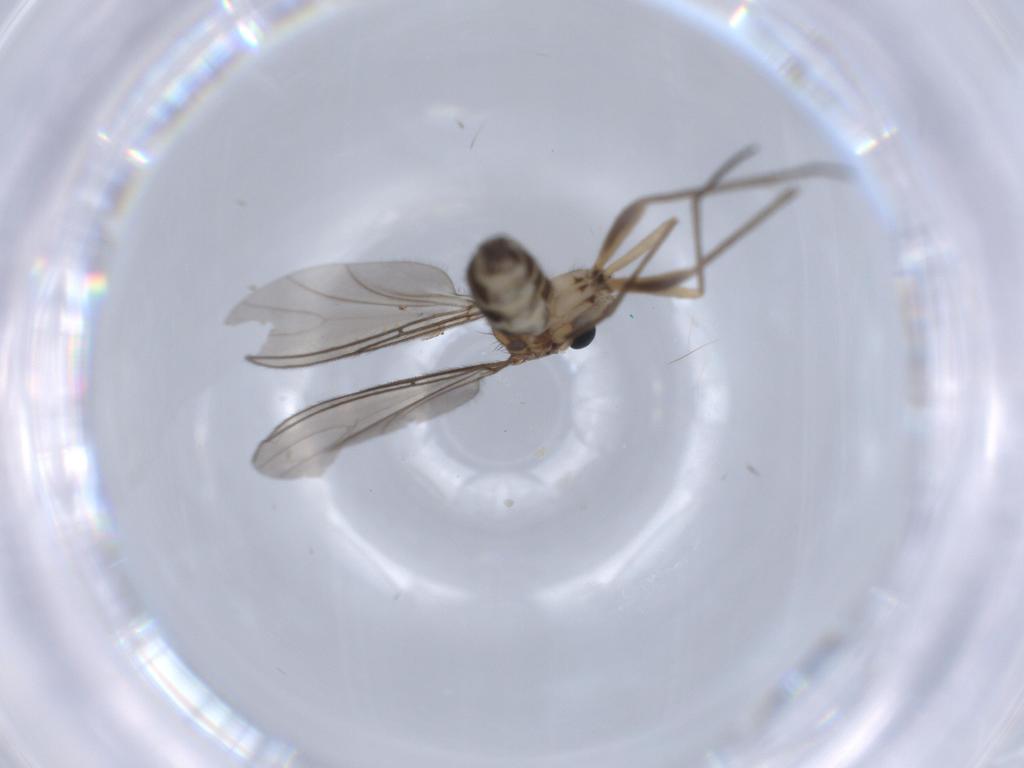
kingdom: Animalia
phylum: Arthropoda
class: Insecta
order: Diptera
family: Sciaridae
